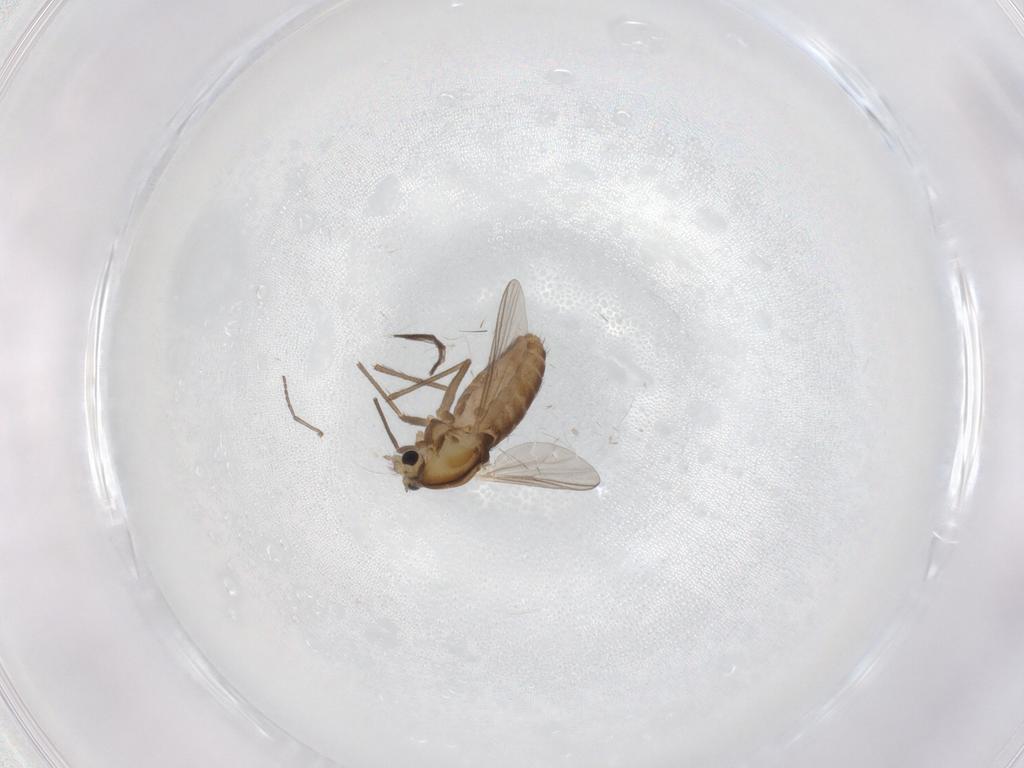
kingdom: Animalia
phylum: Arthropoda
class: Insecta
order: Diptera
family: Chironomidae
